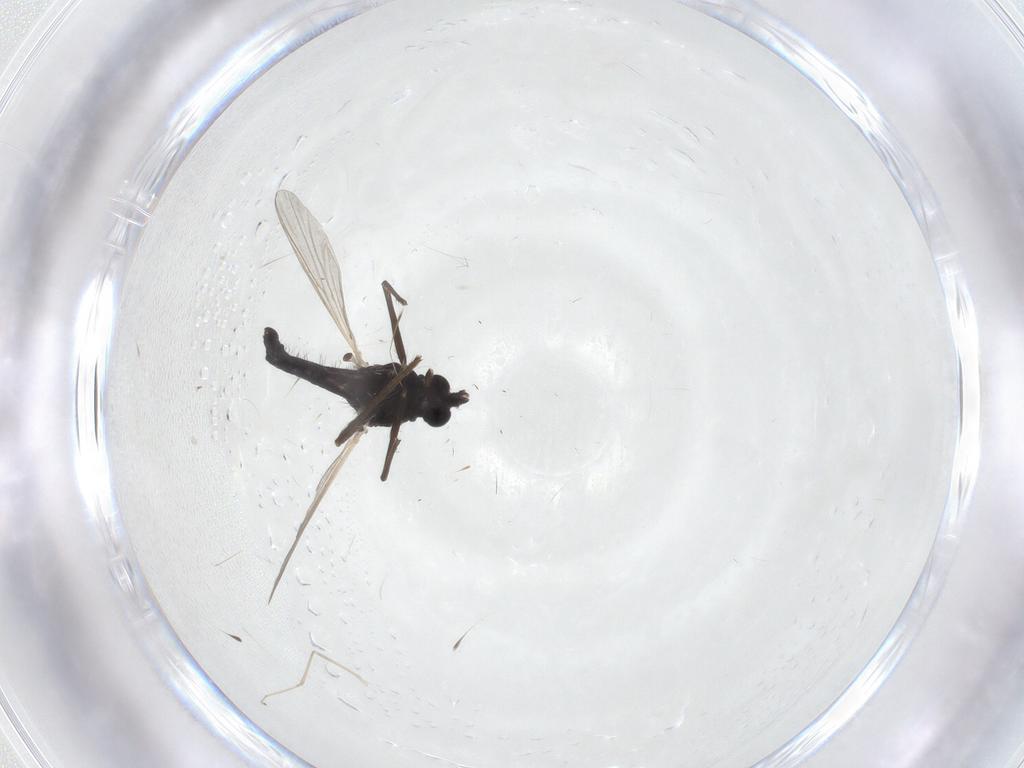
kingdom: Animalia
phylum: Arthropoda
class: Insecta
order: Diptera
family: Chironomidae
